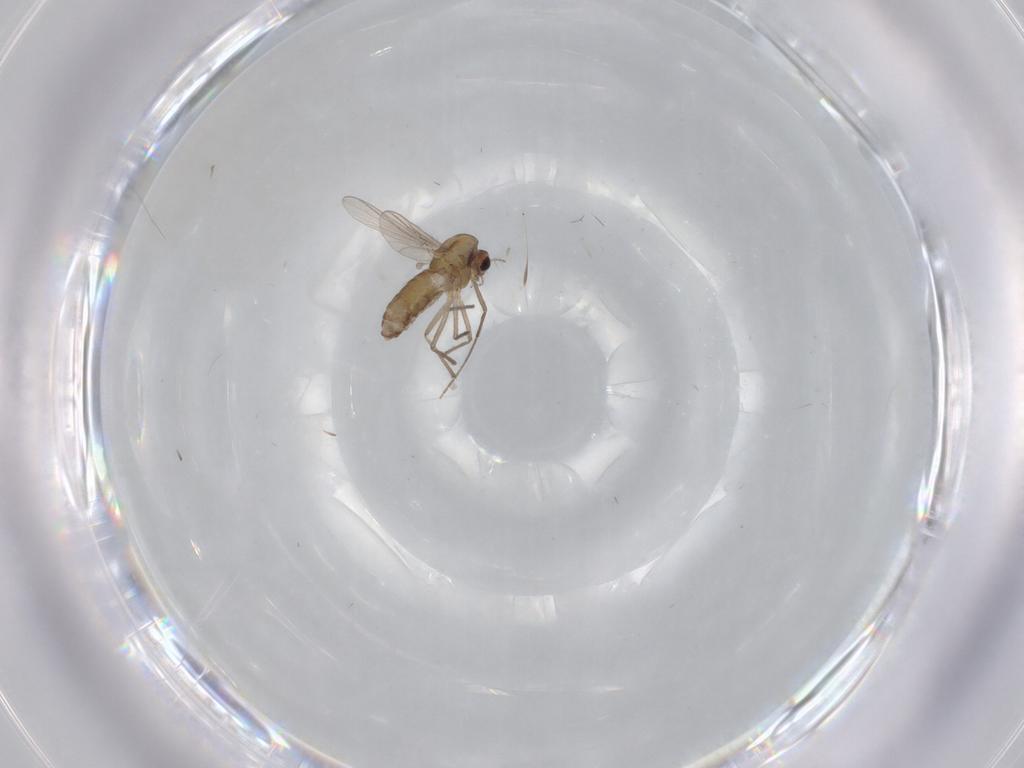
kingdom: Animalia
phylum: Arthropoda
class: Insecta
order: Diptera
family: Chironomidae
